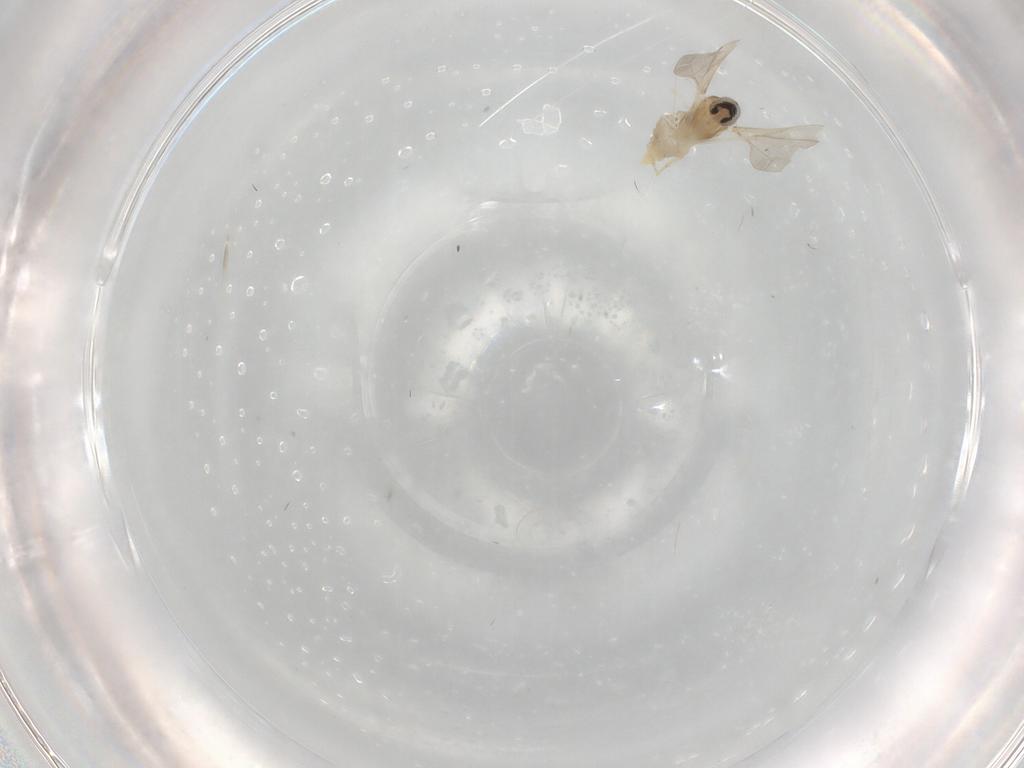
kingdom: Animalia
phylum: Arthropoda
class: Insecta
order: Diptera
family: Cecidomyiidae
